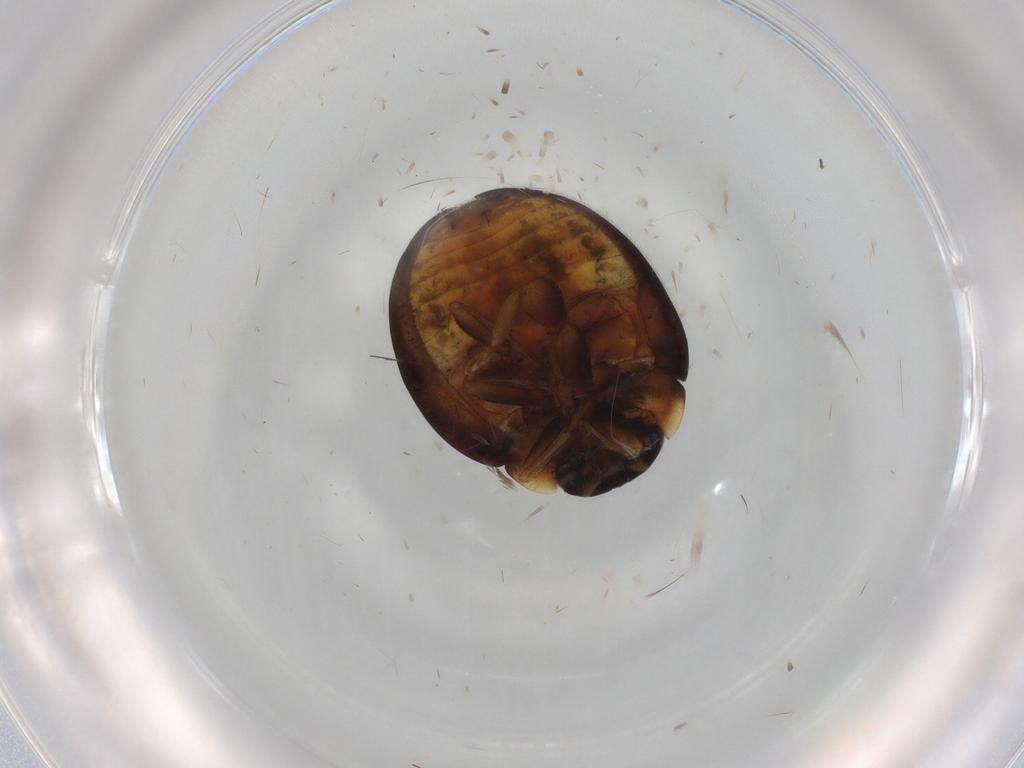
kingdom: Animalia
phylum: Arthropoda
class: Insecta
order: Coleoptera
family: Coccinellidae
